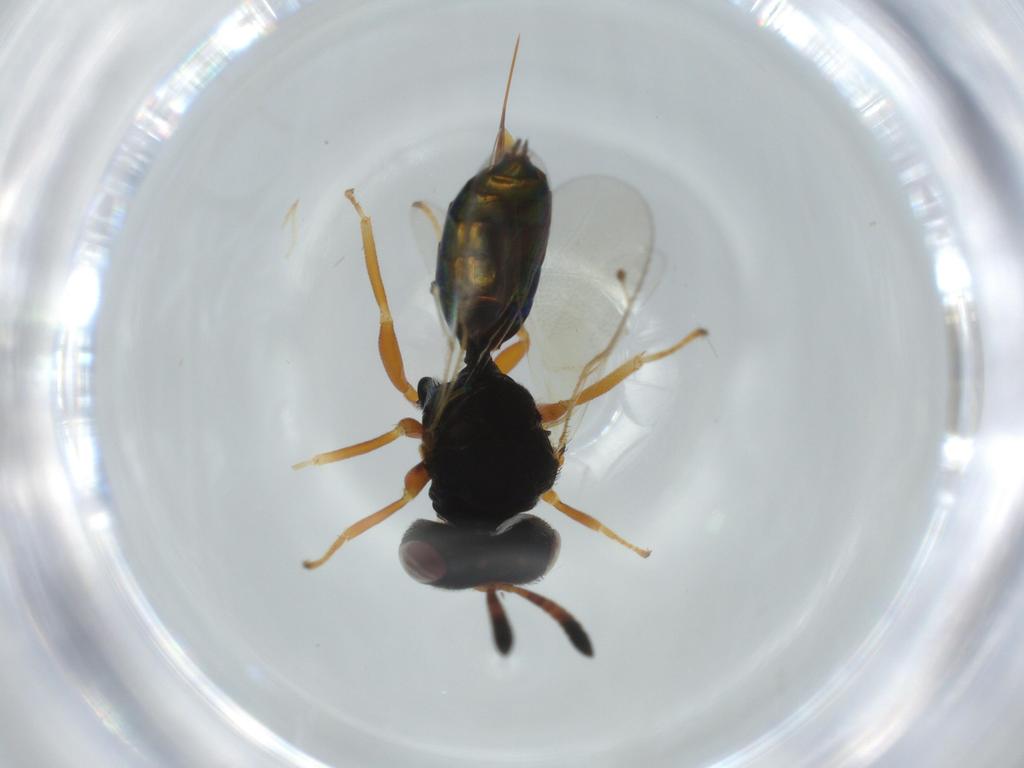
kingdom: Animalia
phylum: Arthropoda
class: Insecta
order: Hymenoptera
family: Agaonidae
